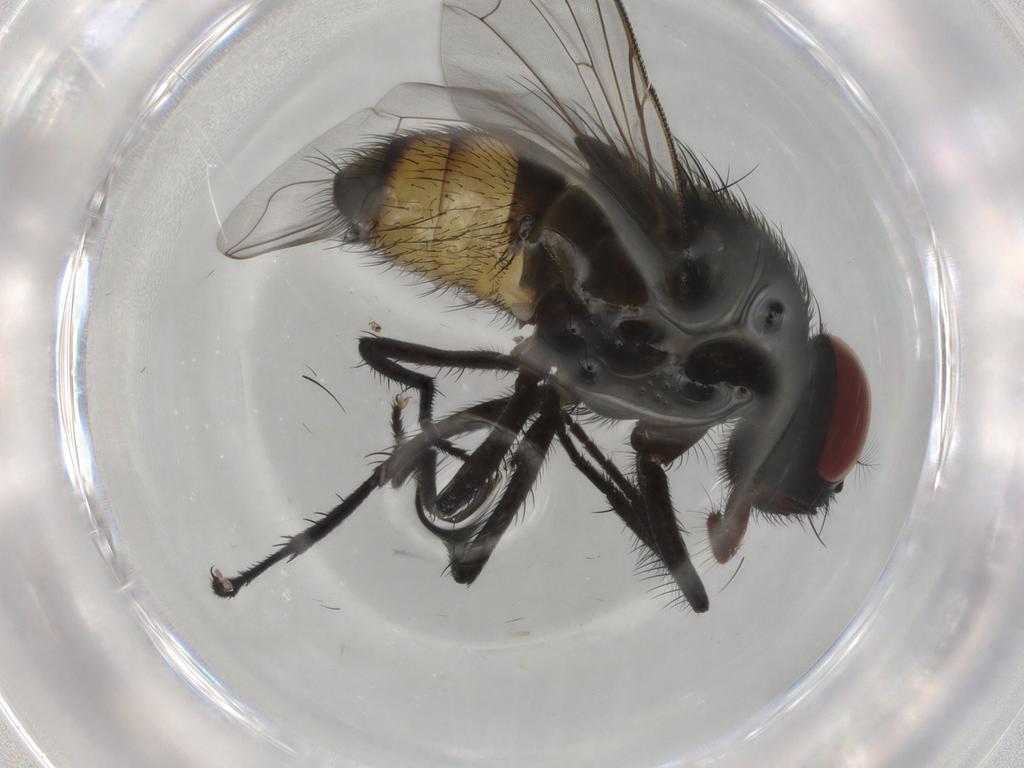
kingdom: Animalia
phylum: Arthropoda
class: Insecta
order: Diptera
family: Muscidae
